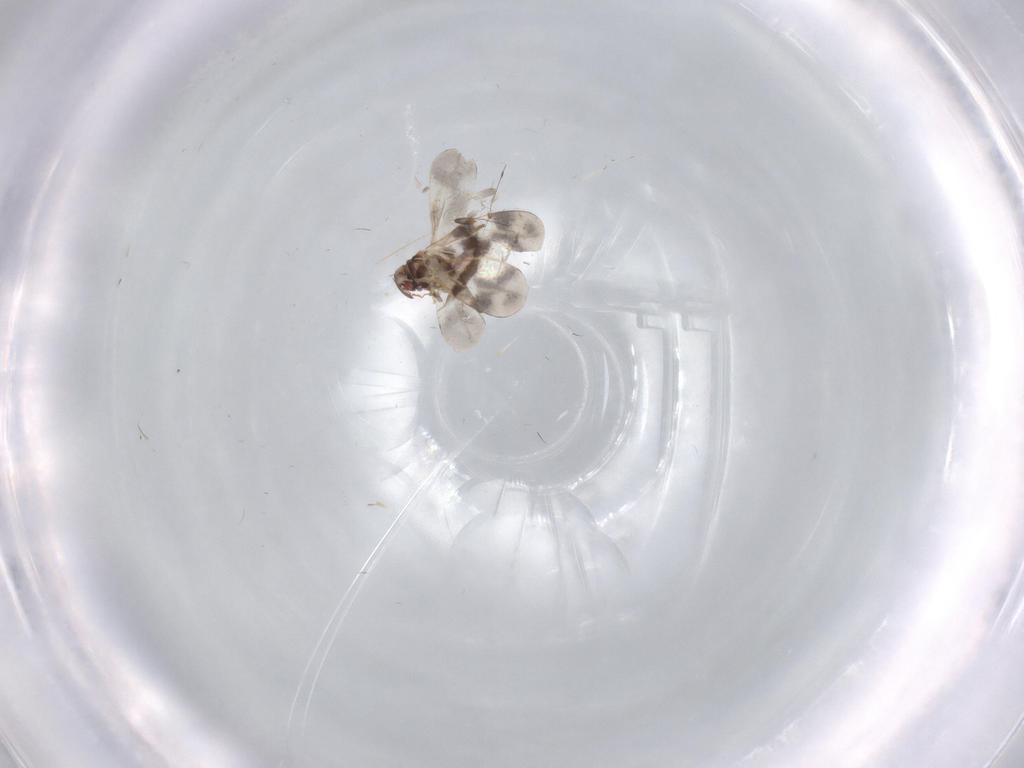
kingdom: Animalia
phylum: Arthropoda
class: Insecta
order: Hemiptera
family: Aleyrodidae
